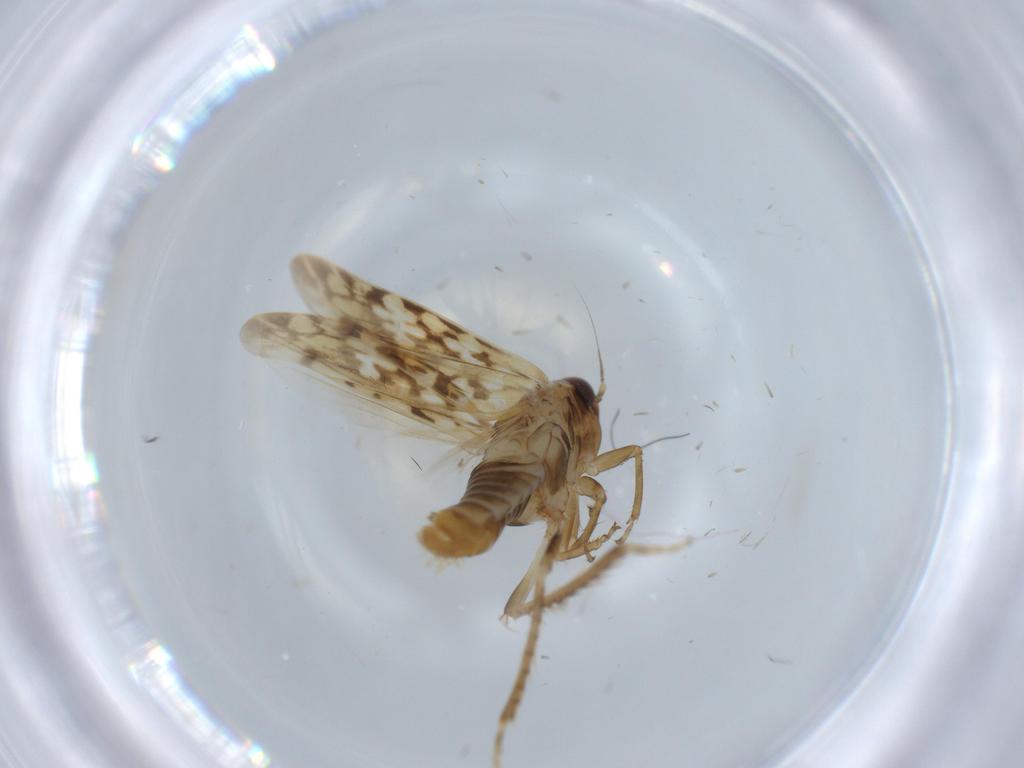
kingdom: Animalia
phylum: Arthropoda
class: Insecta
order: Hemiptera
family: Cicadellidae
